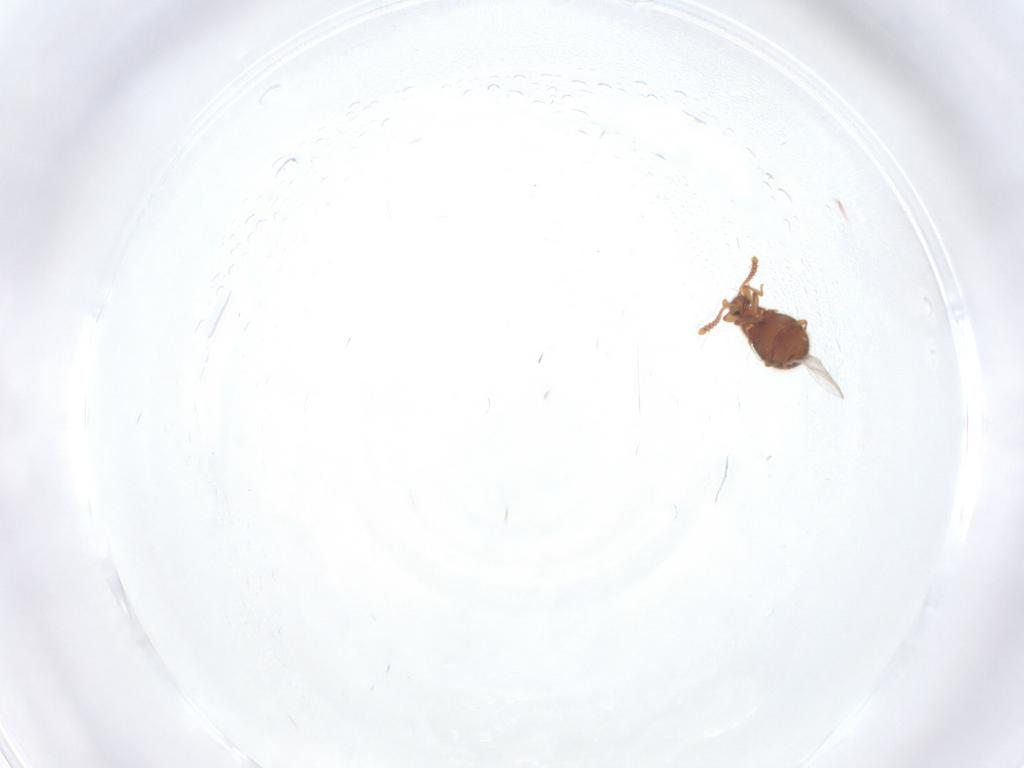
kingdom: Animalia
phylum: Arthropoda
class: Insecta
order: Coleoptera
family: Staphylinidae
